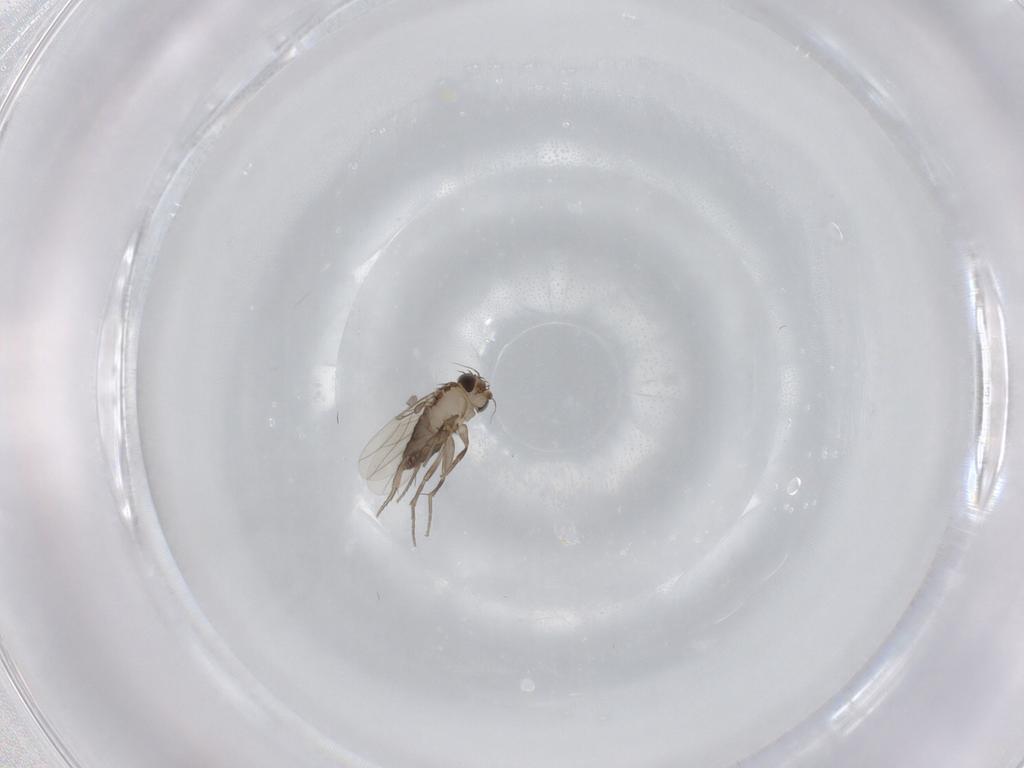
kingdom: Animalia
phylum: Arthropoda
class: Insecta
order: Diptera
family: Phoridae
